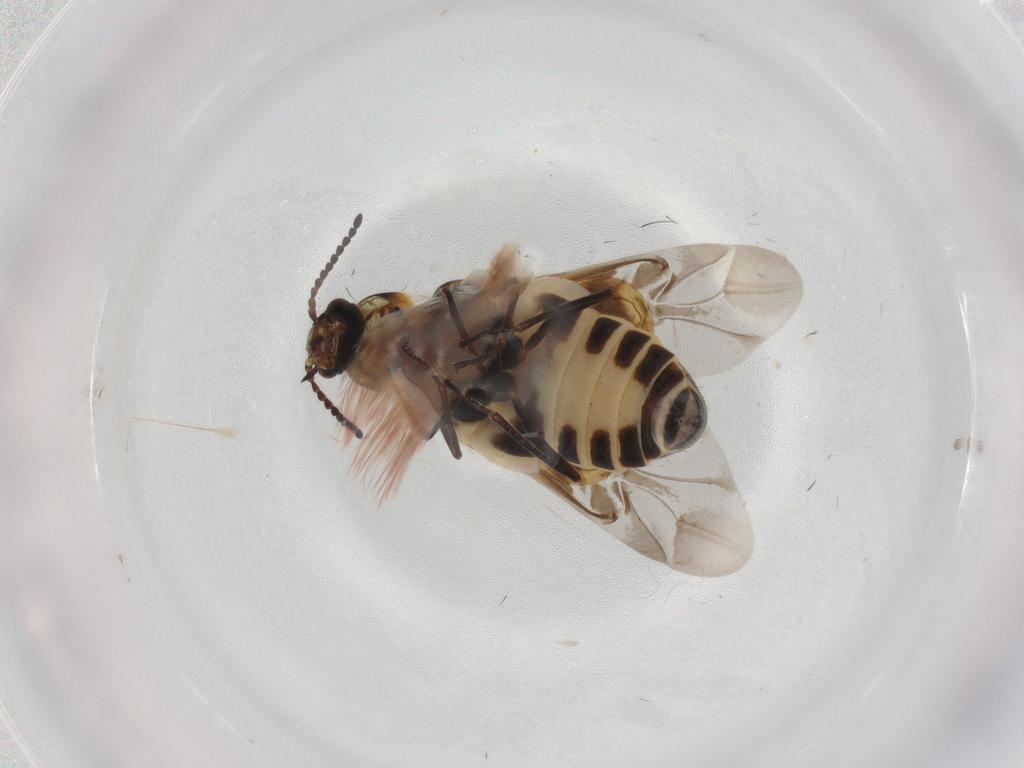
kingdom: Animalia
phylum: Arthropoda
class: Insecta
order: Coleoptera
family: Melyridae
